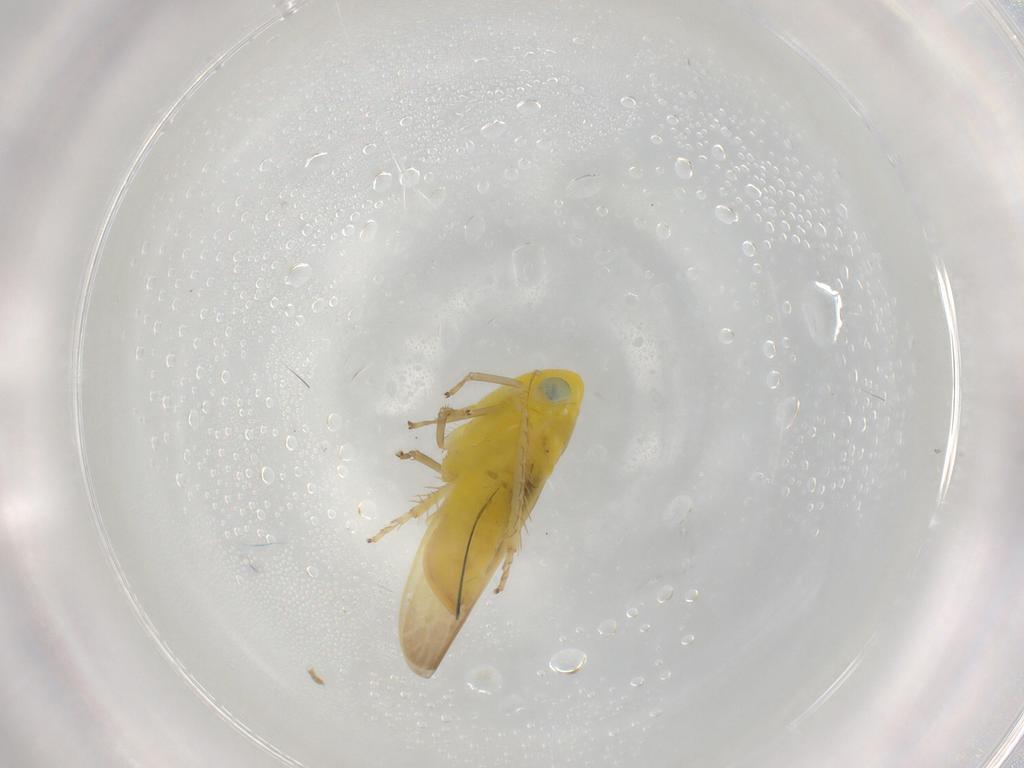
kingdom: Animalia
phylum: Arthropoda
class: Insecta
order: Hemiptera
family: Cicadellidae
